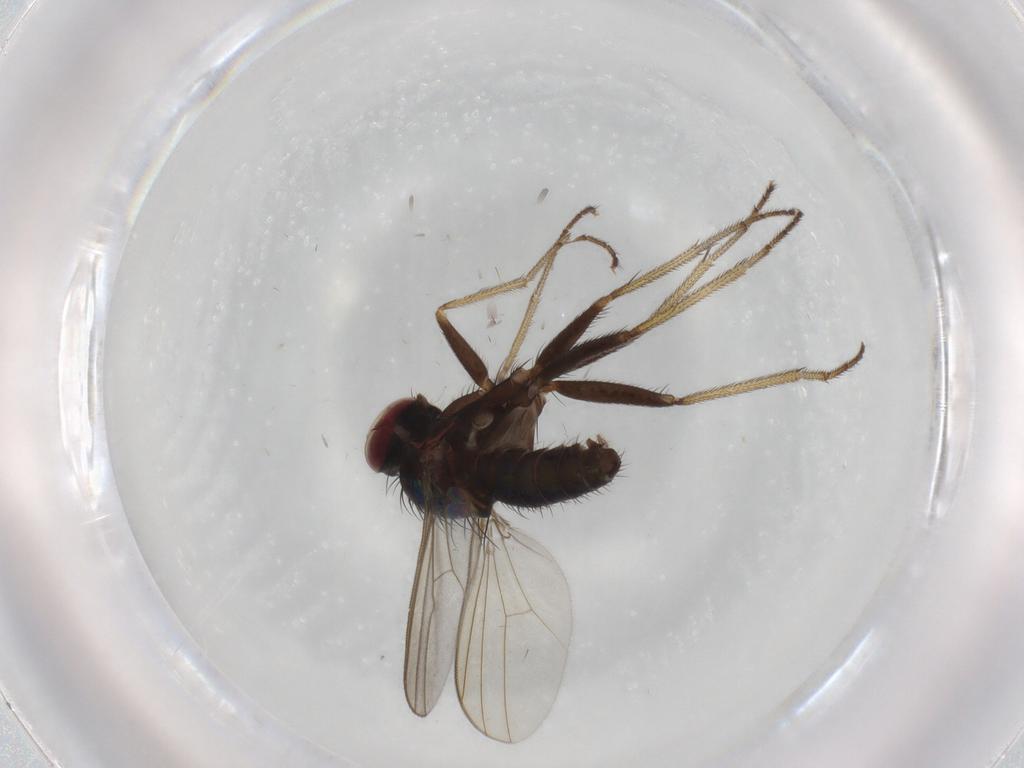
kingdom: Animalia
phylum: Arthropoda
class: Insecta
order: Diptera
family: Dolichopodidae
